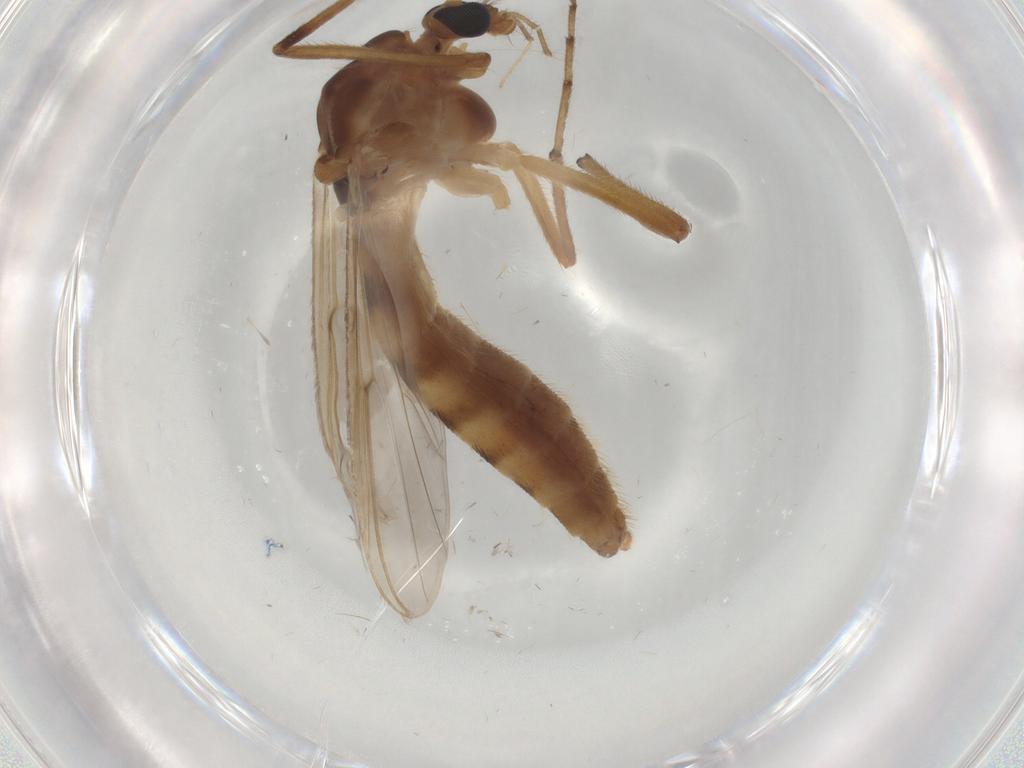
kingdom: Animalia
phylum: Arthropoda
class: Insecta
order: Diptera
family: Chironomidae
